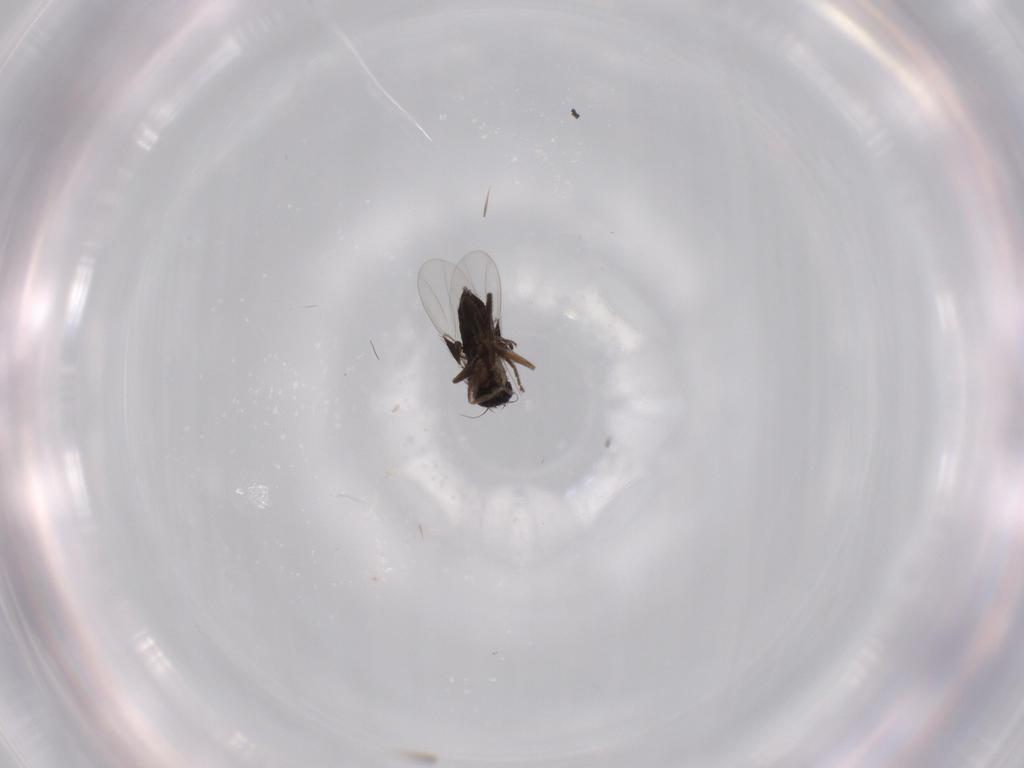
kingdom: Animalia
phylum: Arthropoda
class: Insecta
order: Diptera
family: Phoridae
